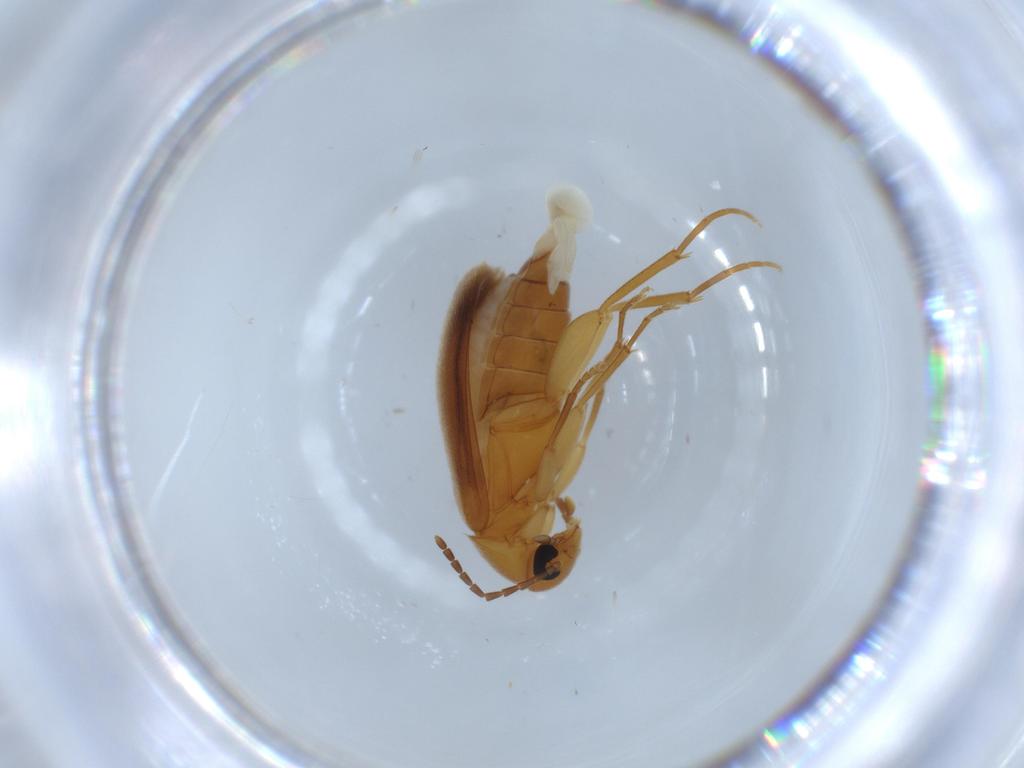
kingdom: Animalia
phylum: Arthropoda
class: Insecta
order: Coleoptera
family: Scraptiidae
